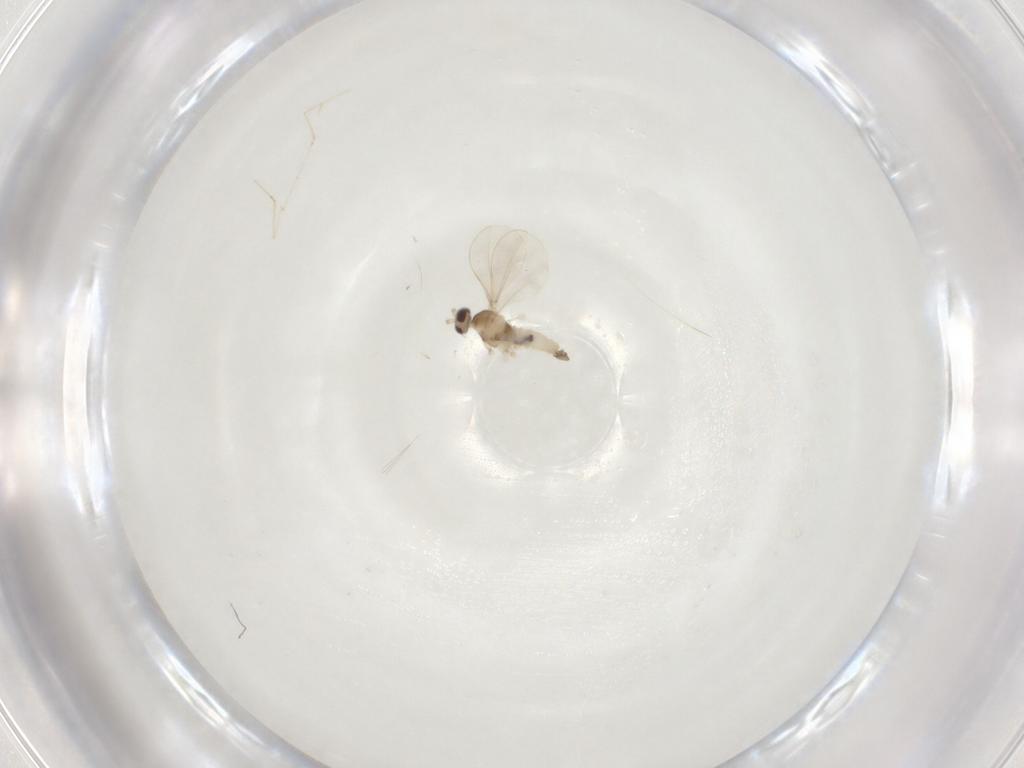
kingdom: Animalia
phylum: Arthropoda
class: Insecta
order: Diptera
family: Cecidomyiidae
